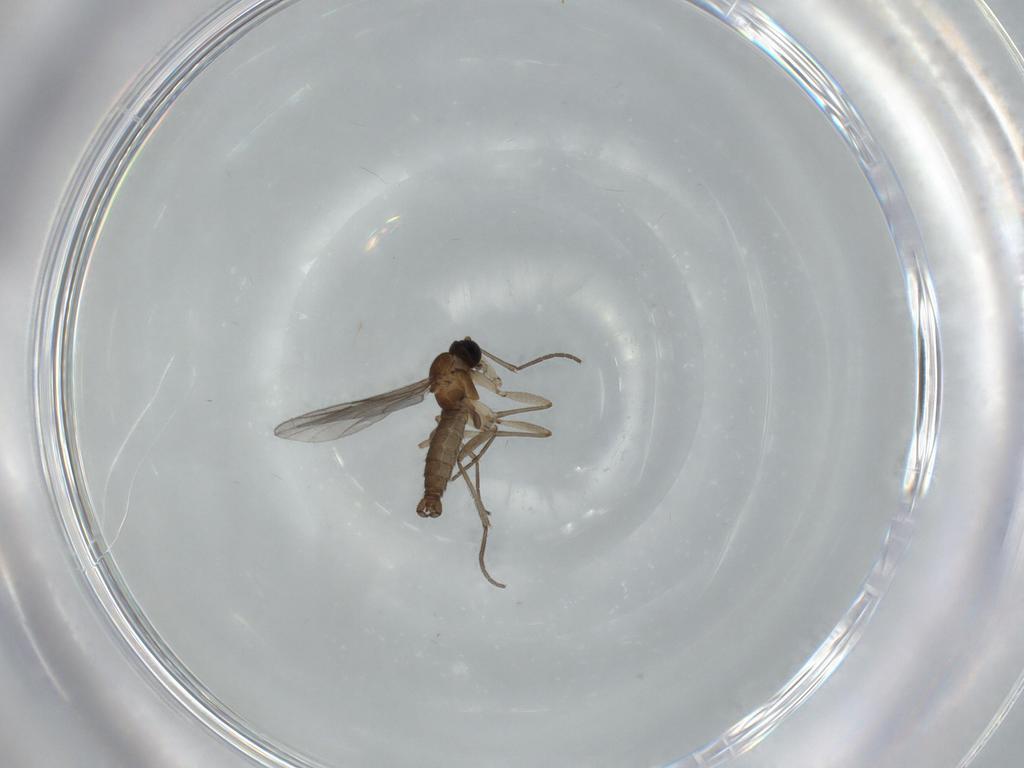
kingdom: Animalia
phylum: Arthropoda
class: Insecta
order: Diptera
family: Sciaridae
